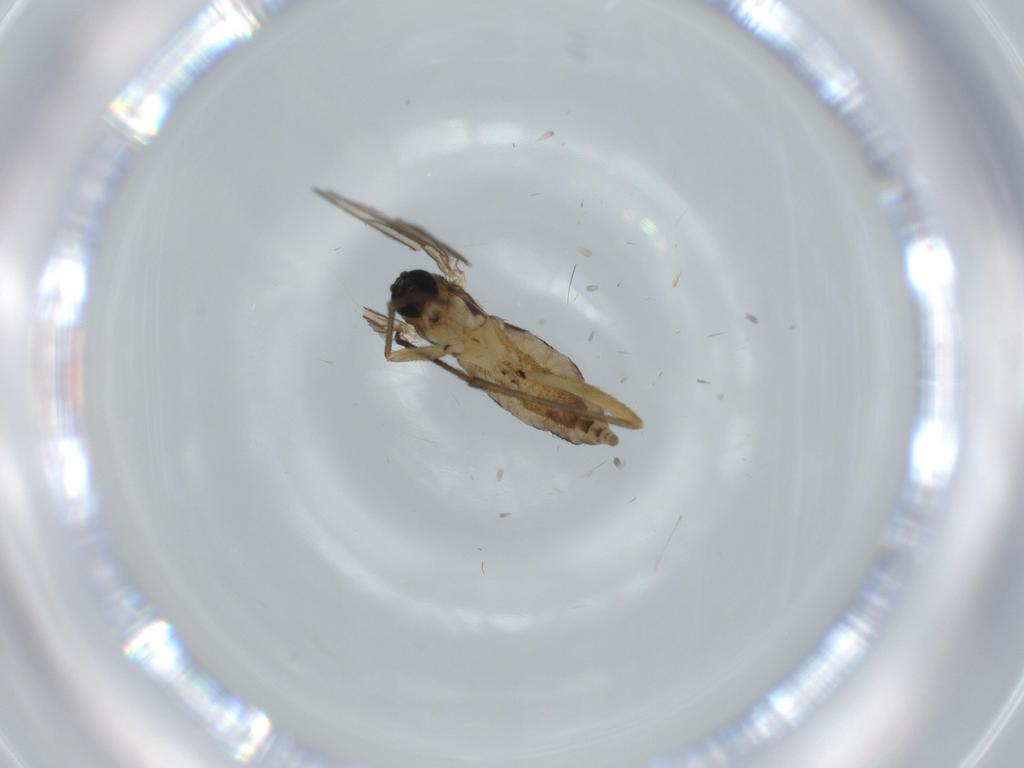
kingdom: Animalia
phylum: Arthropoda
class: Insecta
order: Diptera
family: Sciaridae
